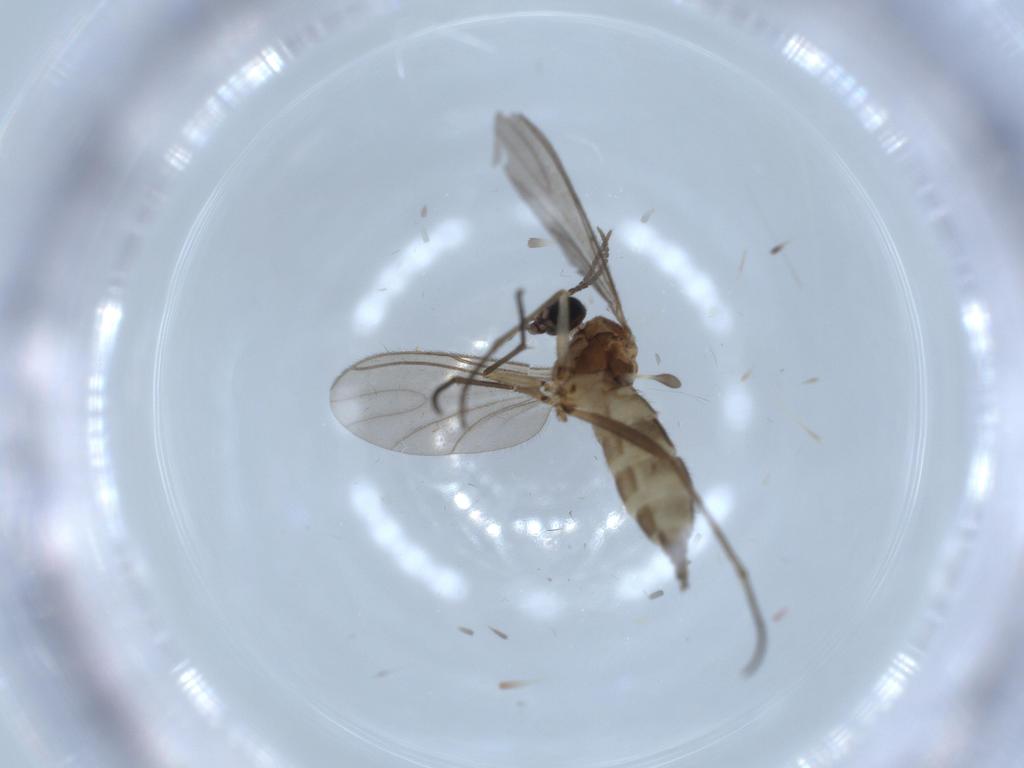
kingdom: Animalia
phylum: Arthropoda
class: Insecta
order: Diptera
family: Sciaridae
